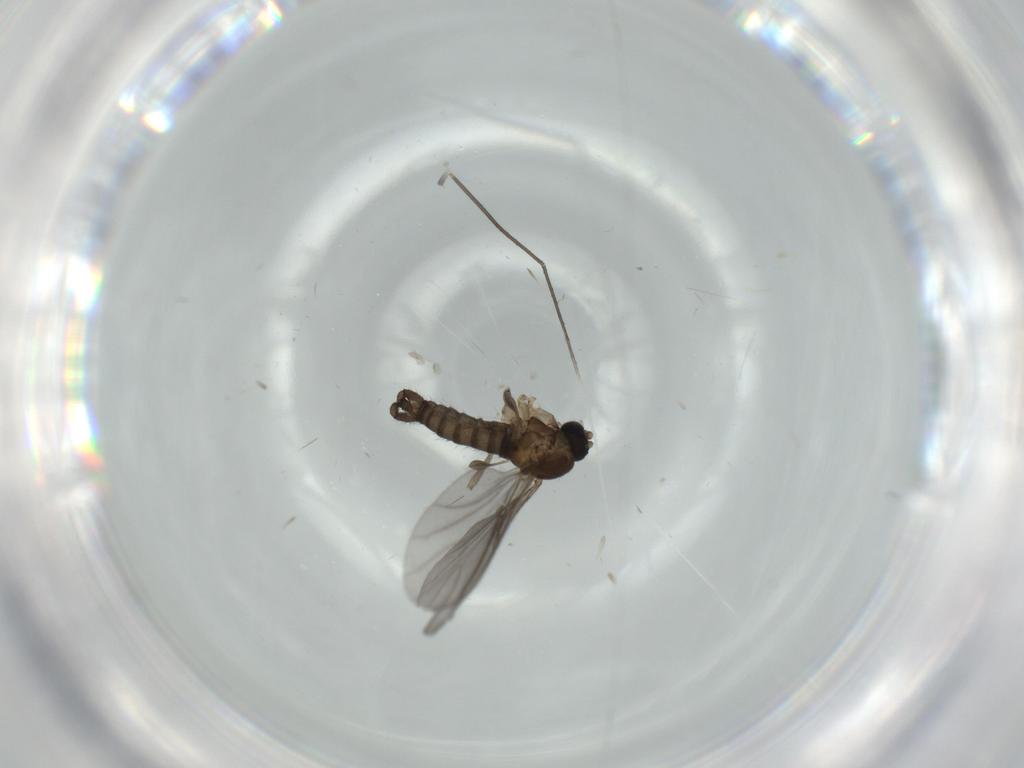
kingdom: Animalia
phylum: Arthropoda
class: Insecta
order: Diptera
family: Sciaridae
